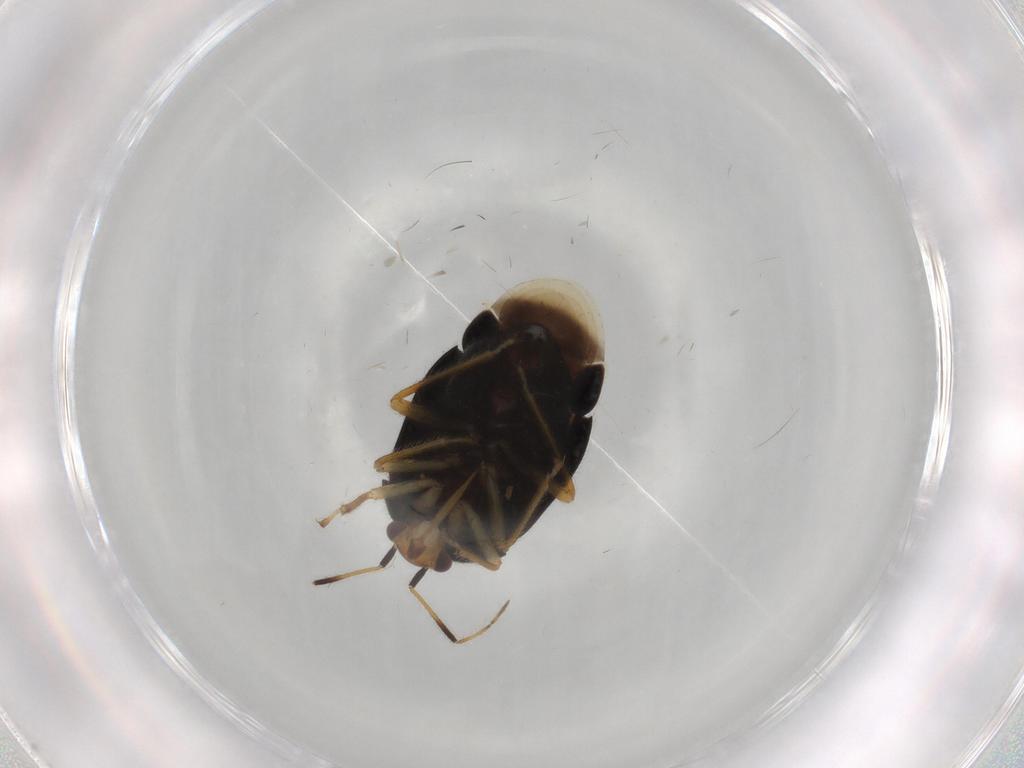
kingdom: Animalia
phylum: Arthropoda
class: Insecta
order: Hemiptera
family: Miridae
